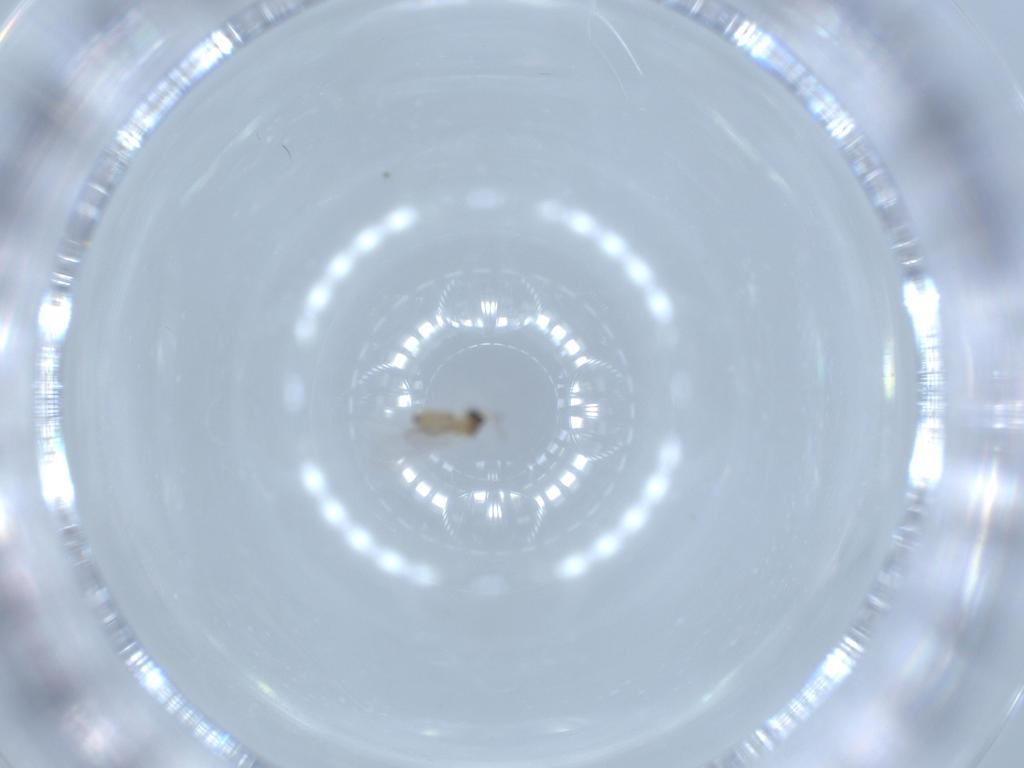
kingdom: Animalia
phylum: Arthropoda
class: Insecta
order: Diptera
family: Cecidomyiidae
